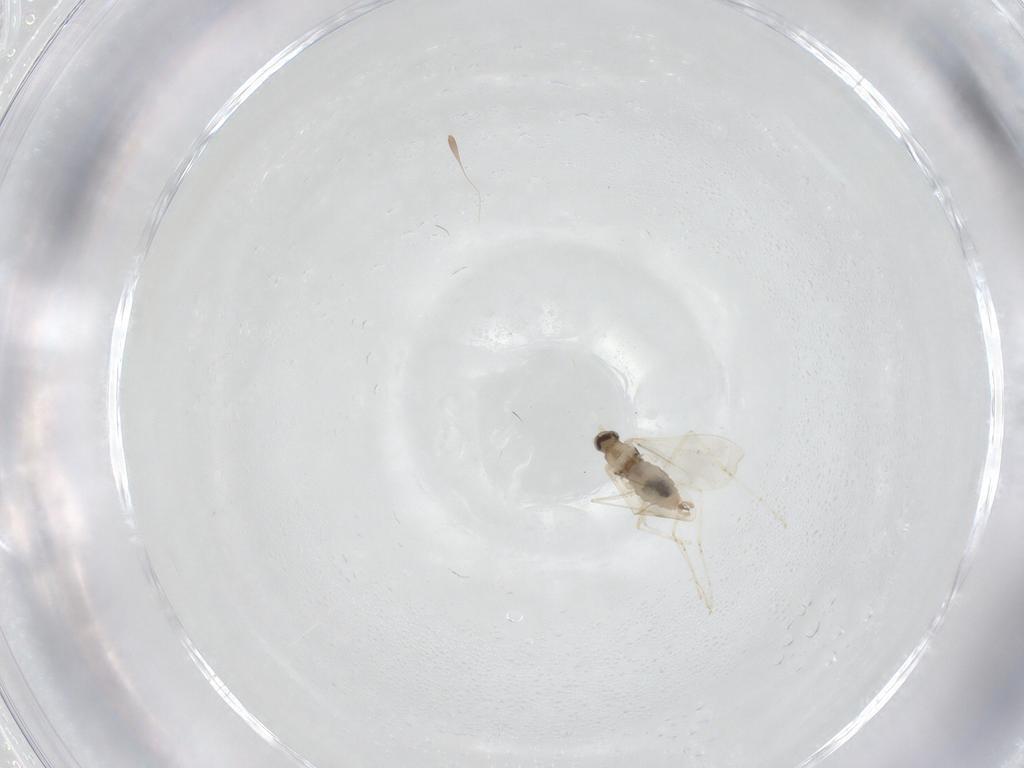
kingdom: Animalia
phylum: Arthropoda
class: Insecta
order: Diptera
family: Cecidomyiidae
